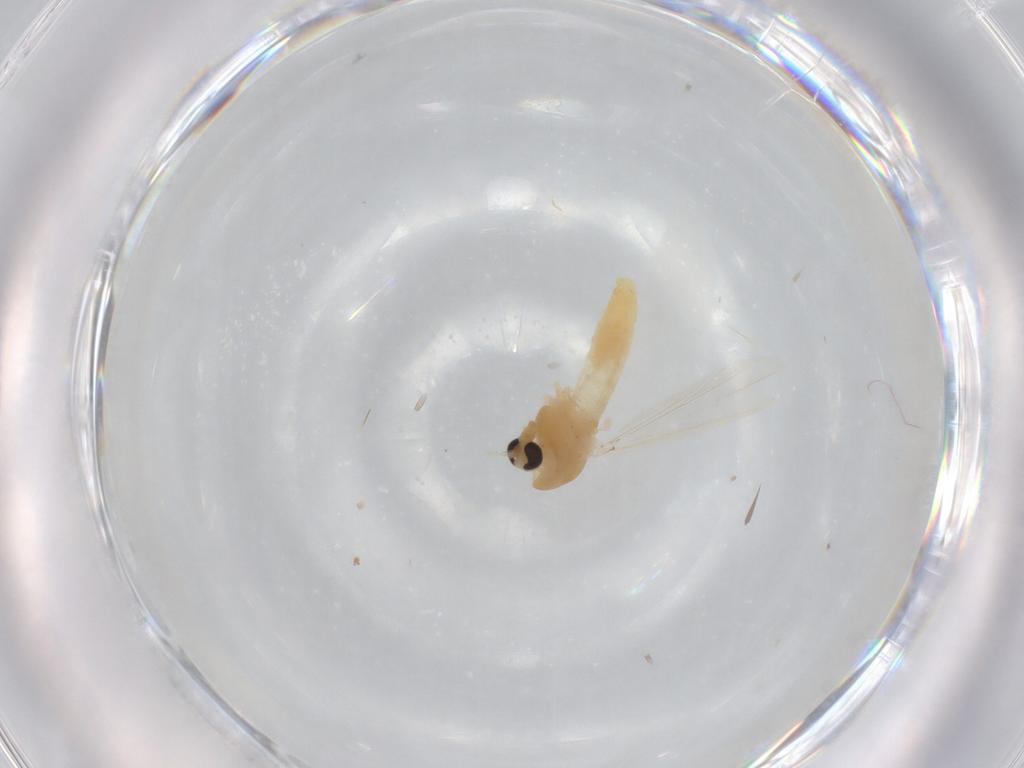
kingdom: Animalia
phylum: Arthropoda
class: Insecta
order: Diptera
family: Chironomidae
